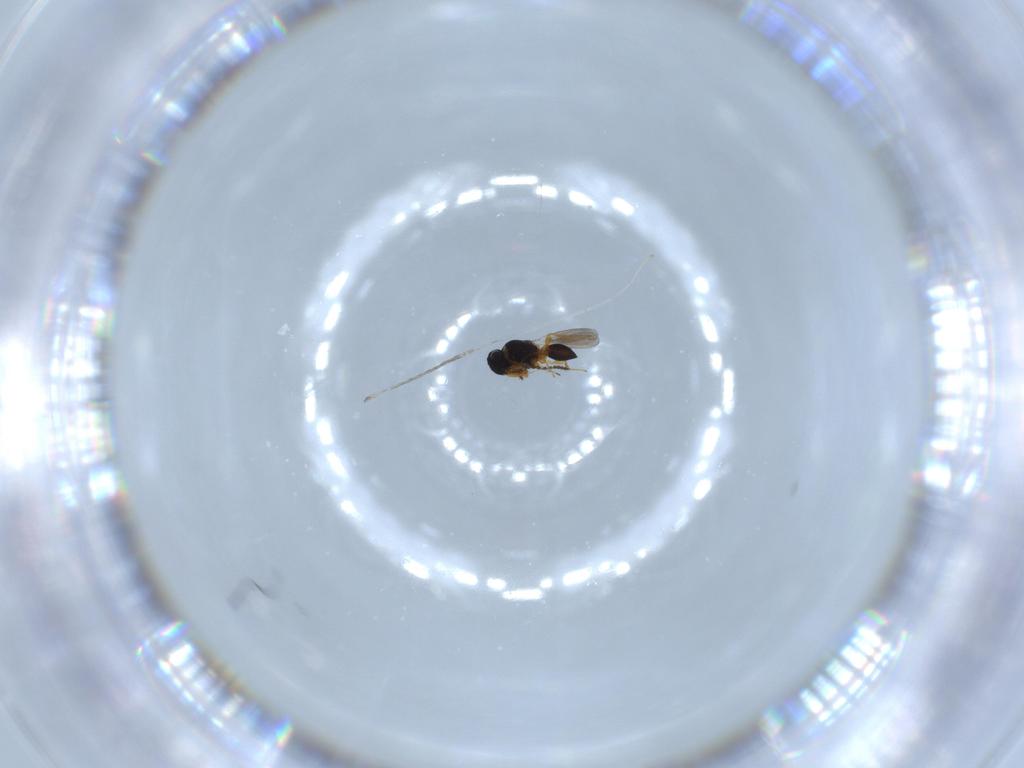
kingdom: Animalia
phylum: Arthropoda
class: Insecta
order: Hymenoptera
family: Platygastridae
